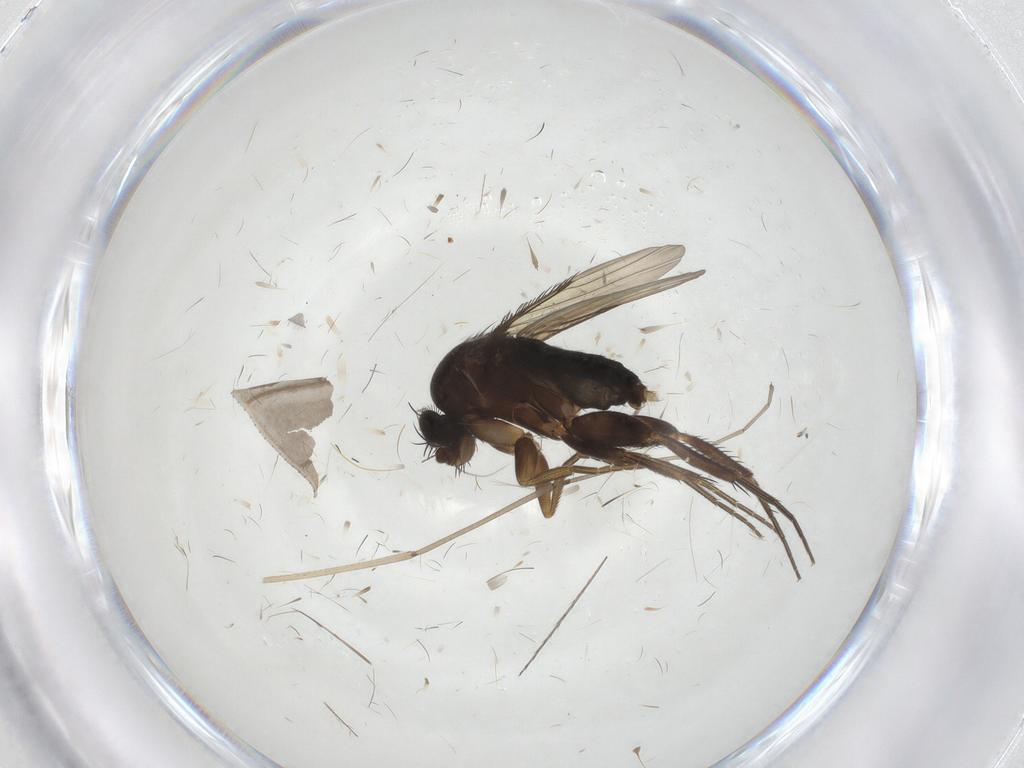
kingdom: Animalia
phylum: Arthropoda
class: Insecta
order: Diptera
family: Phoridae
